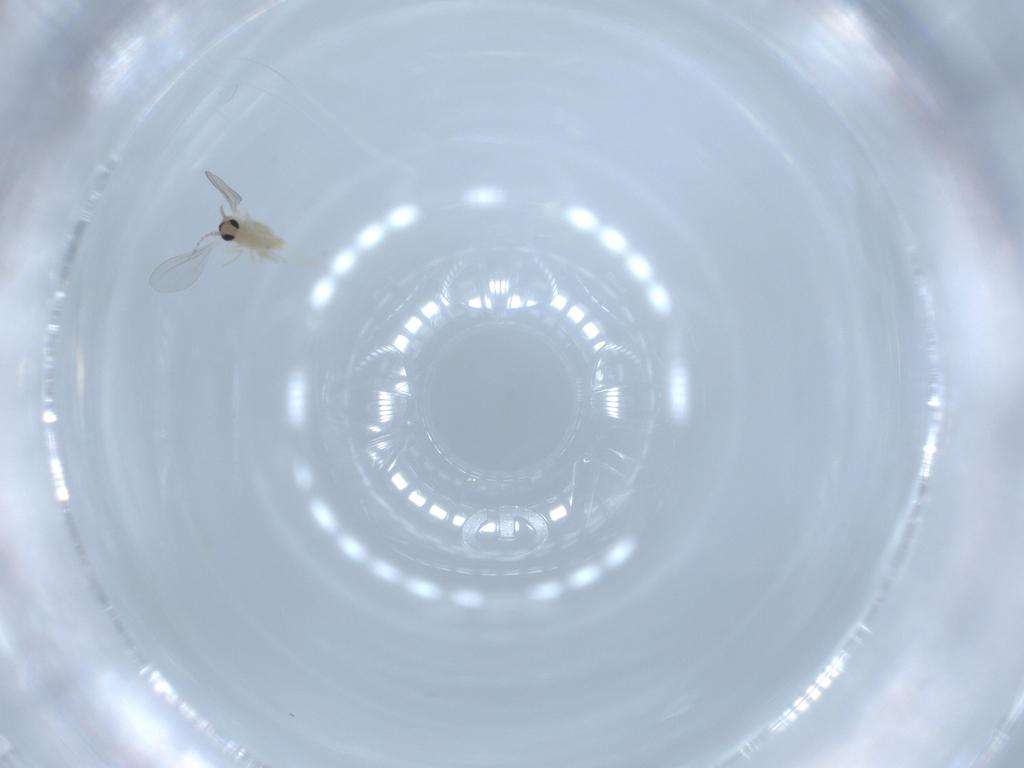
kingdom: Animalia
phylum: Arthropoda
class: Insecta
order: Diptera
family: Cecidomyiidae
